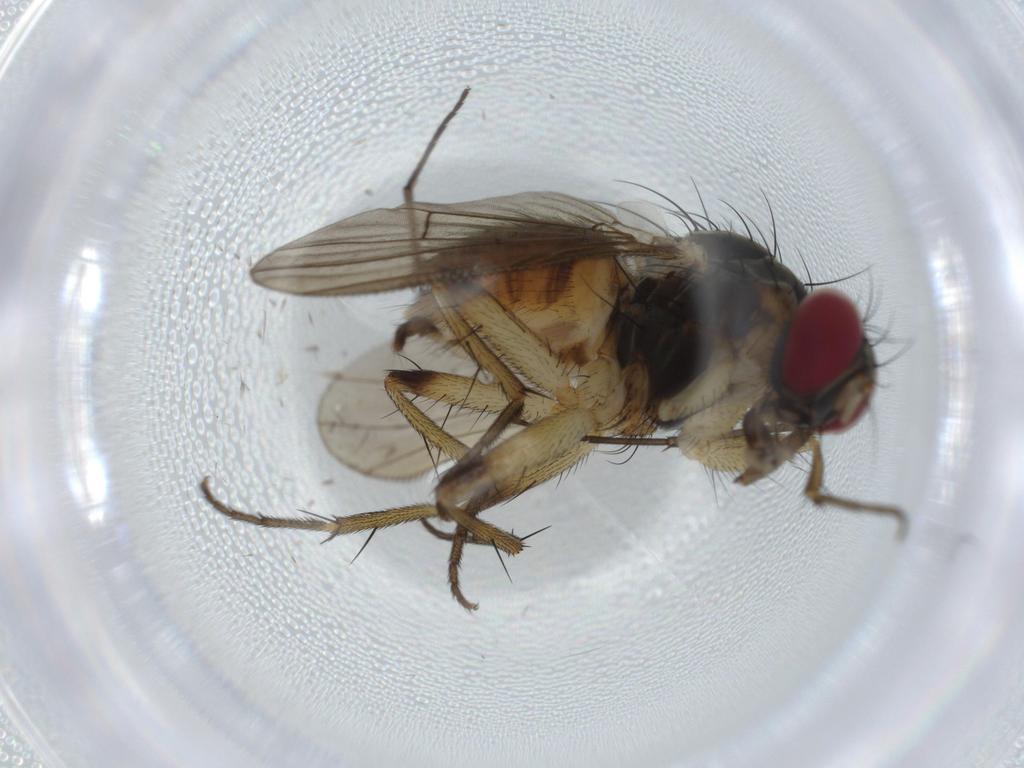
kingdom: Animalia
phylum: Arthropoda
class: Insecta
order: Diptera
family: Muscidae
